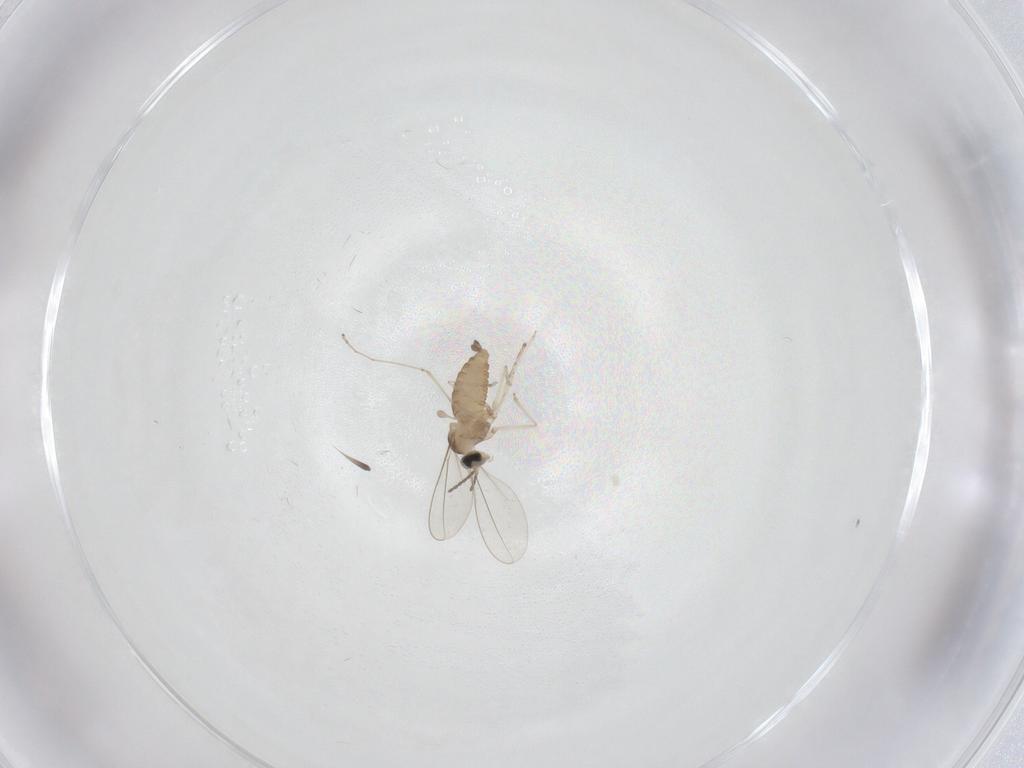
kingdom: Animalia
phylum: Arthropoda
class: Insecta
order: Diptera
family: Cecidomyiidae
